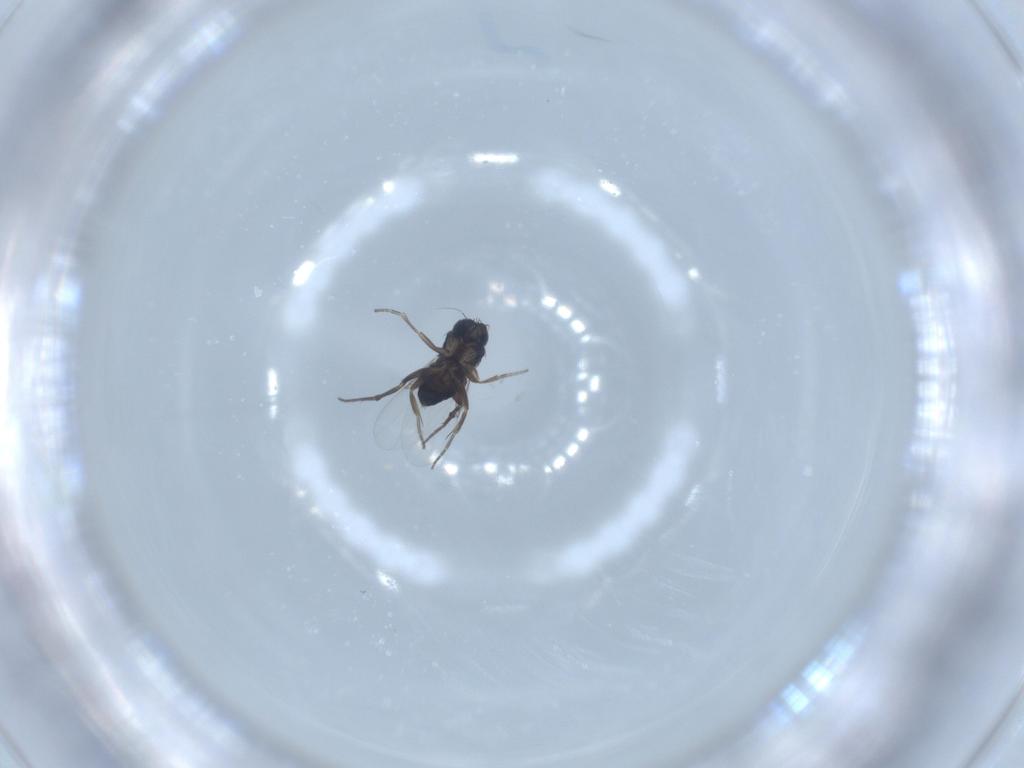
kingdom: Animalia
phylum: Arthropoda
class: Insecta
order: Diptera
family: Phoridae
